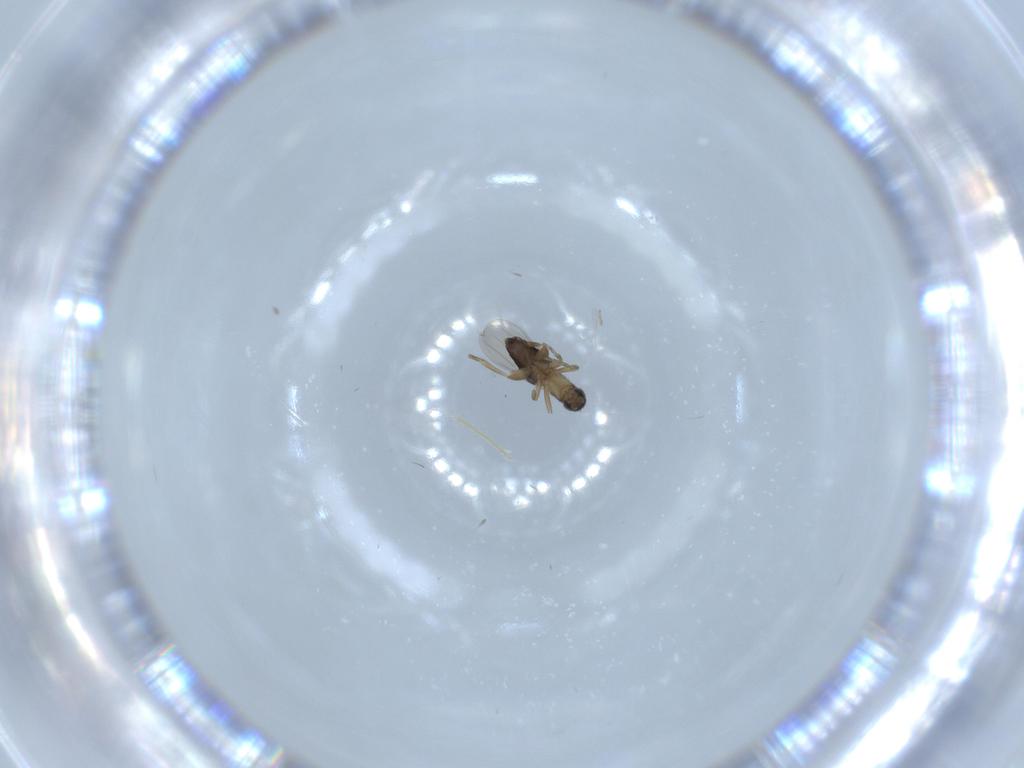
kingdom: Animalia
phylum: Arthropoda
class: Insecta
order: Diptera
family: Phoridae
